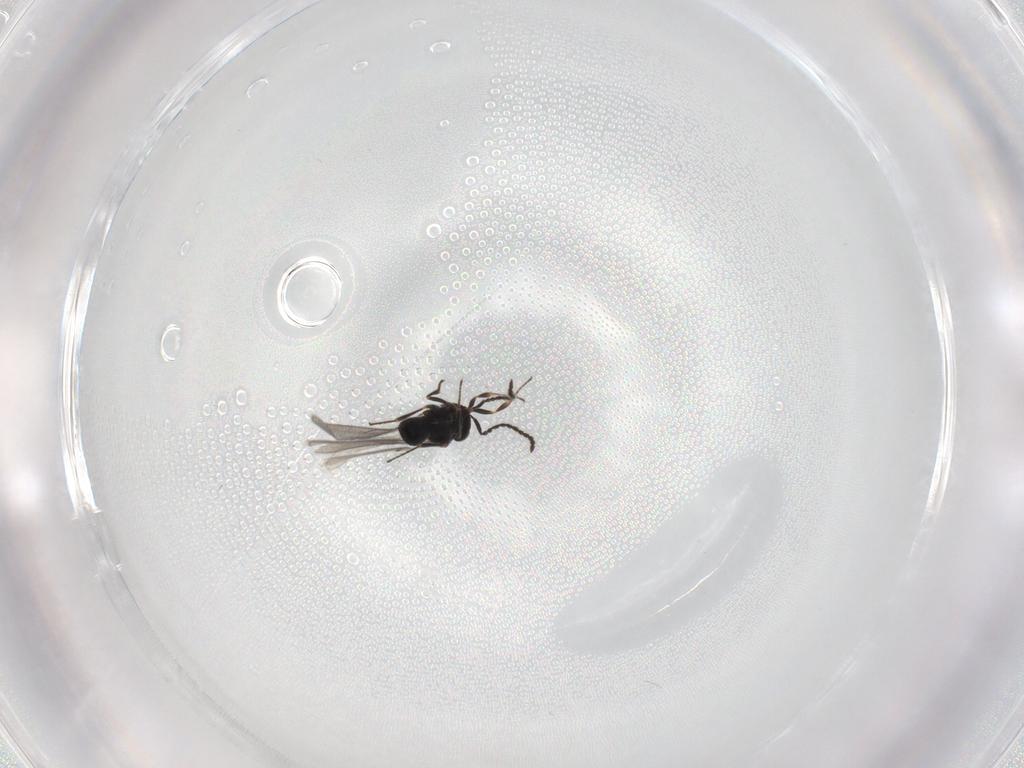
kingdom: Animalia
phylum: Arthropoda
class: Insecta
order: Hymenoptera
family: Scelionidae
